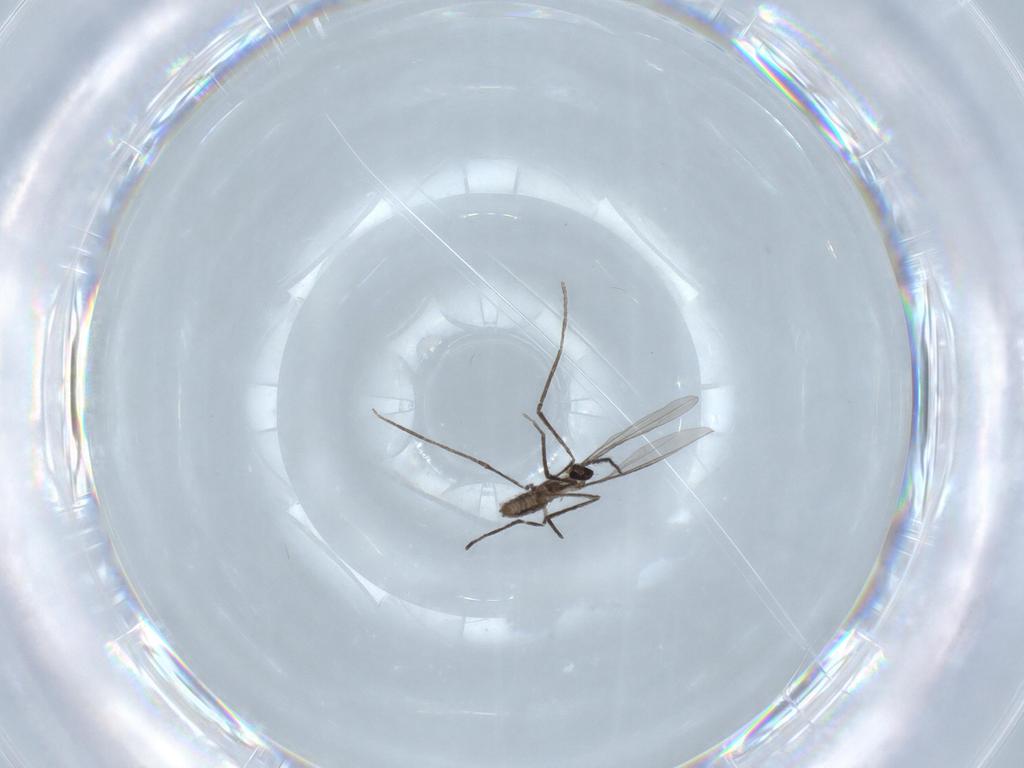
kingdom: Animalia
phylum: Arthropoda
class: Insecta
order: Diptera
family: Cecidomyiidae
